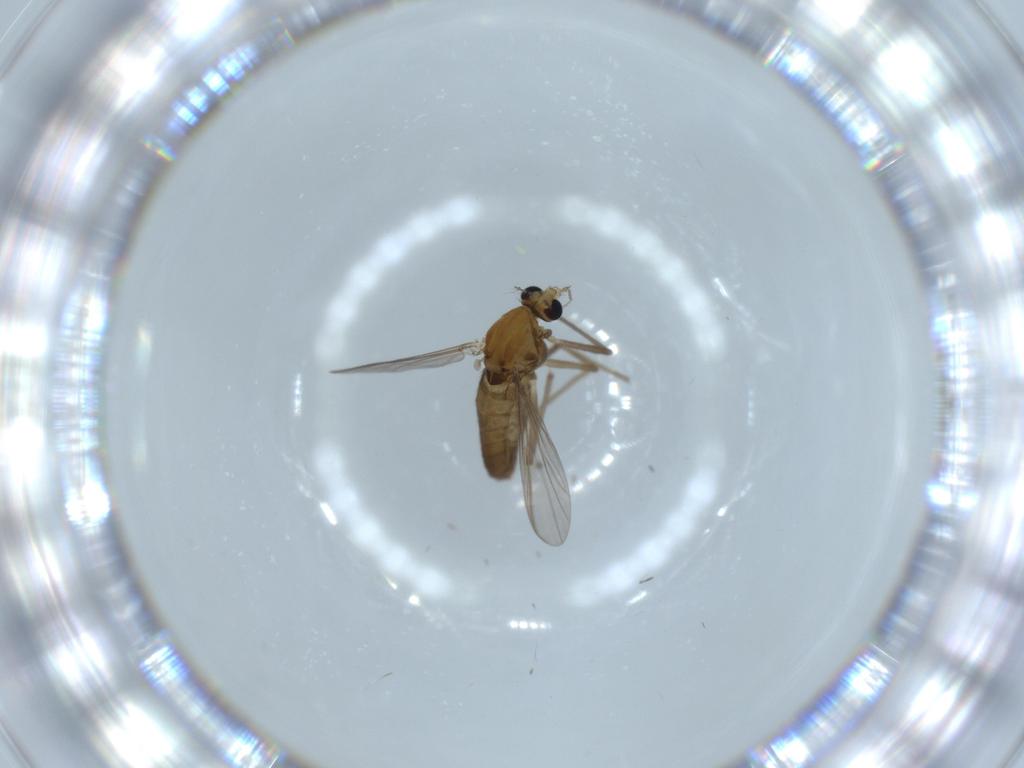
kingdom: Animalia
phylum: Arthropoda
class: Insecta
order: Diptera
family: Chironomidae
